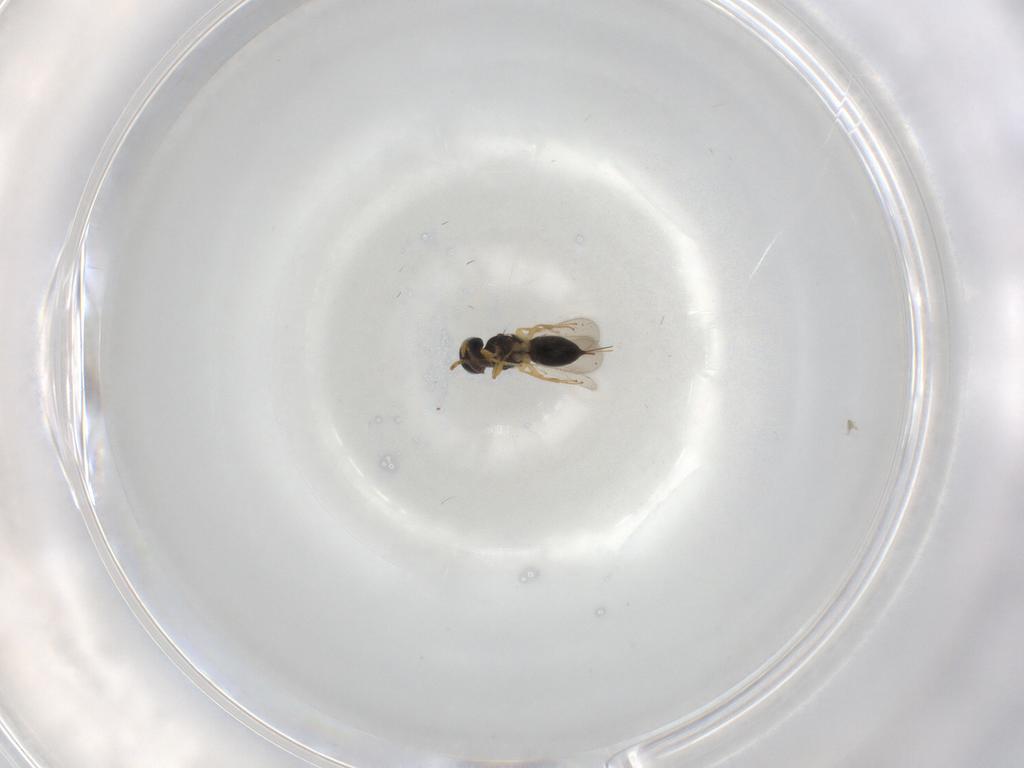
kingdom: Animalia
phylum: Arthropoda
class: Insecta
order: Hymenoptera
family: Scelionidae
